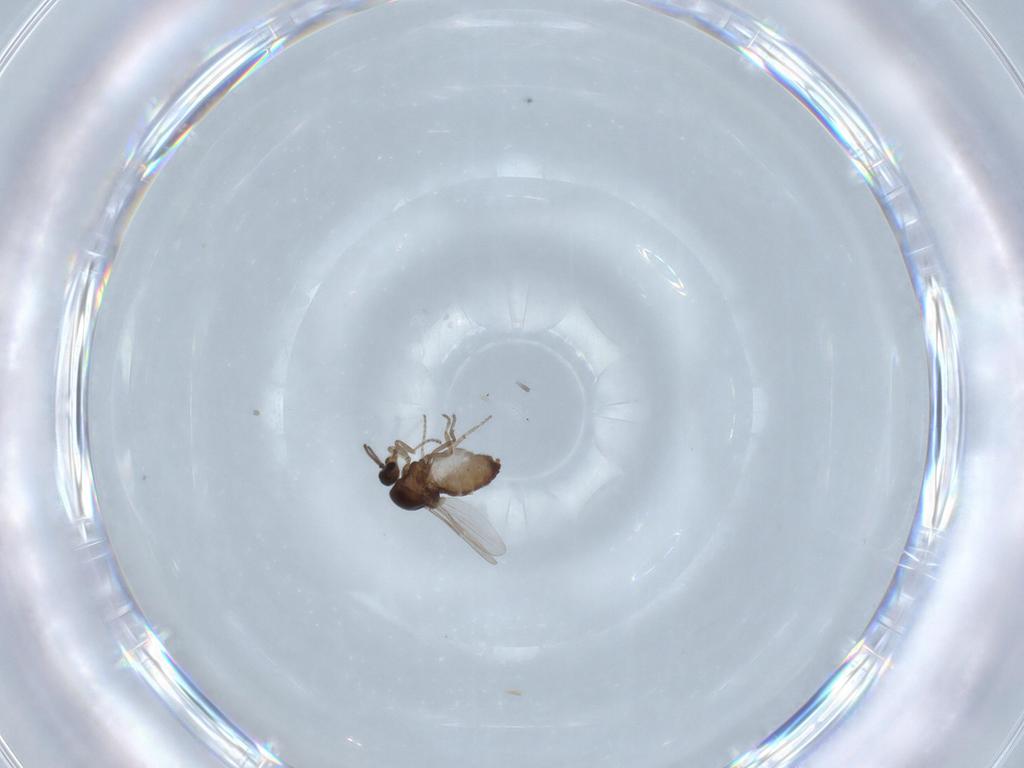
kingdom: Animalia
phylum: Arthropoda
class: Insecta
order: Diptera
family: Ceratopogonidae
